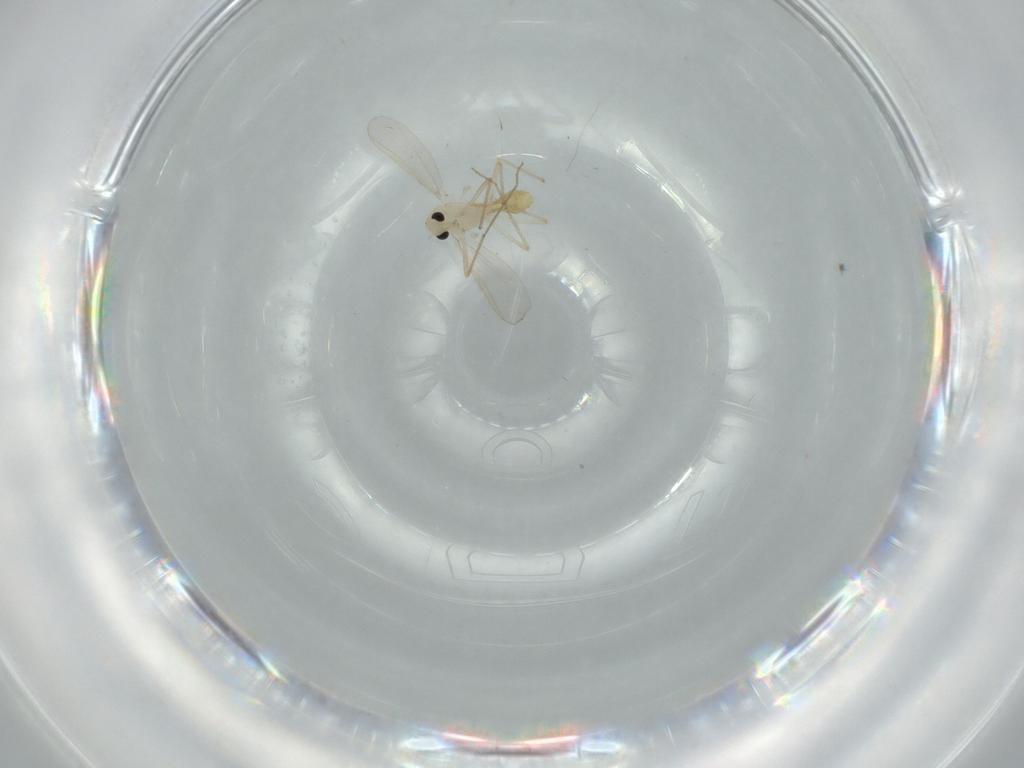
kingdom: Animalia
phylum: Arthropoda
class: Insecta
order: Diptera
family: Chironomidae
